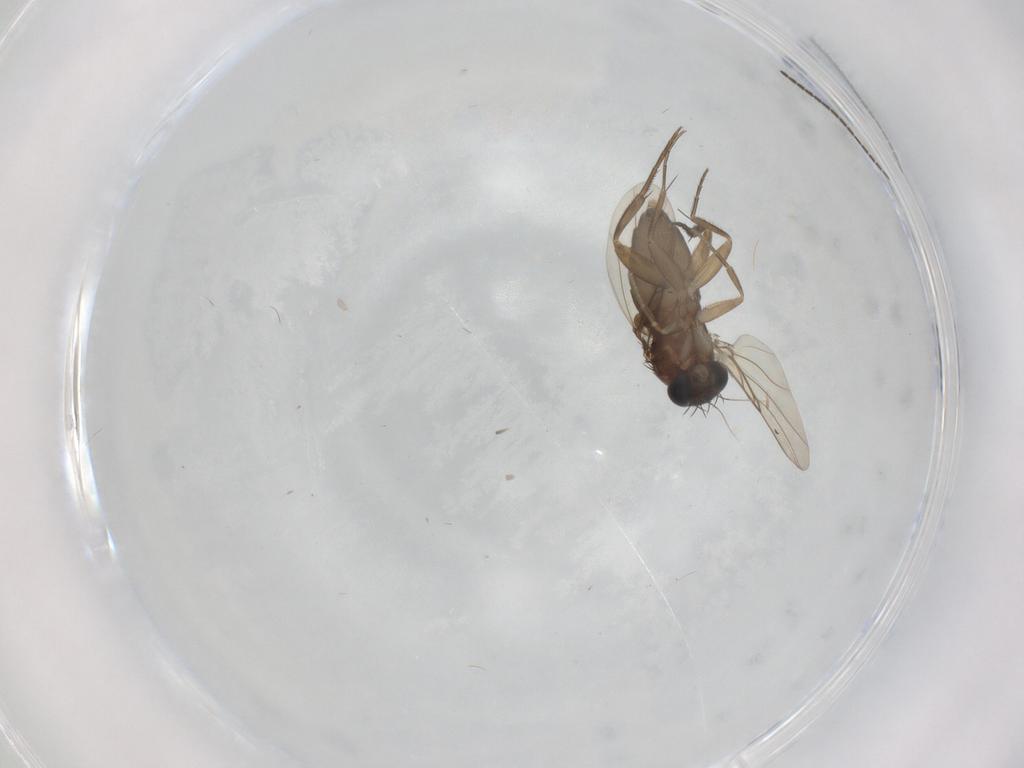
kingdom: Animalia
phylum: Arthropoda
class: Insecta
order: Diptera
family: Phoridae
